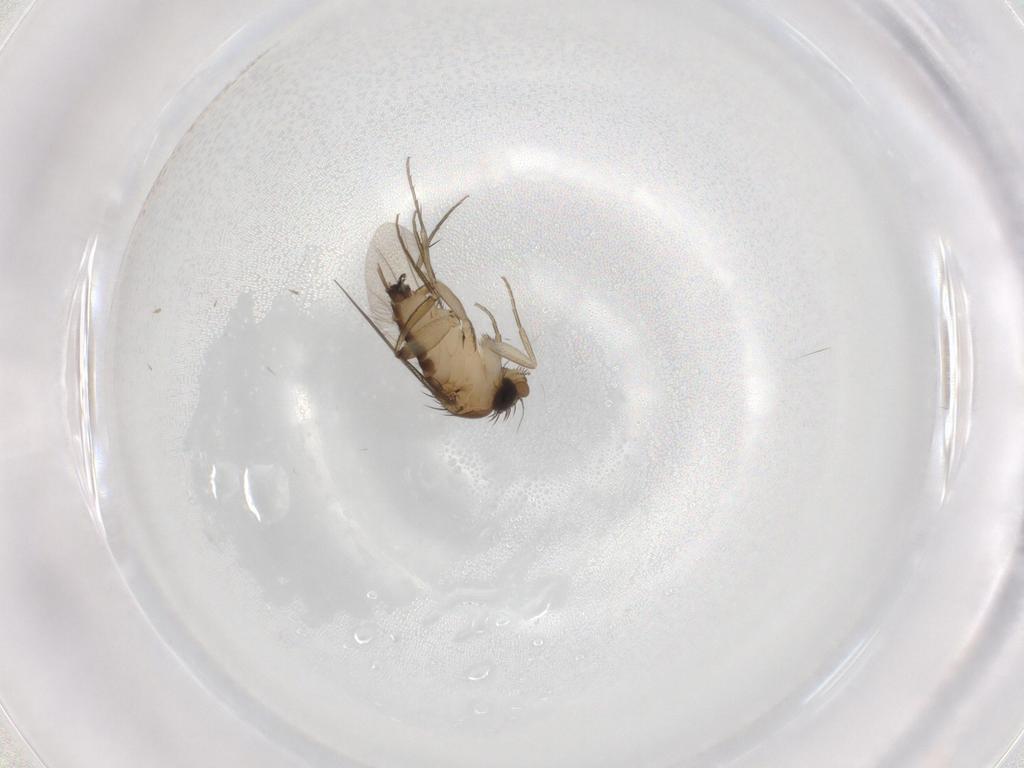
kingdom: Animalia
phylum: Arthropoda
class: Insecta
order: Diptera
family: Phoridae
